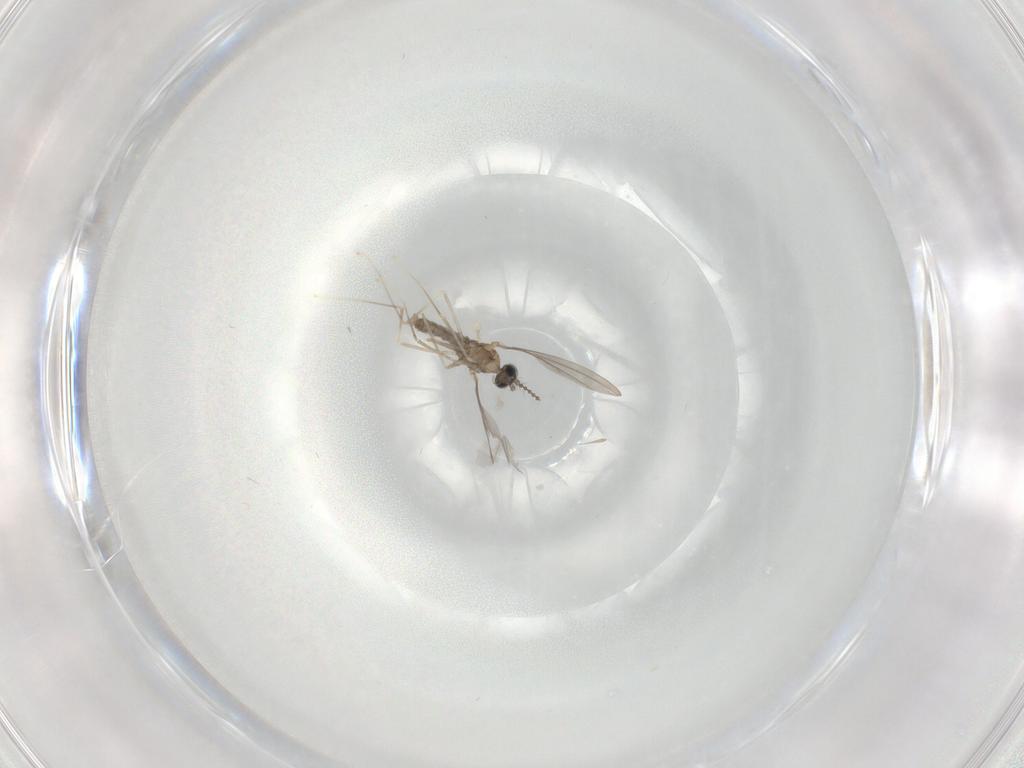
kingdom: Animalia
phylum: Arthropoda
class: Insecta
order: Diptera
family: Cecidomyiidae
